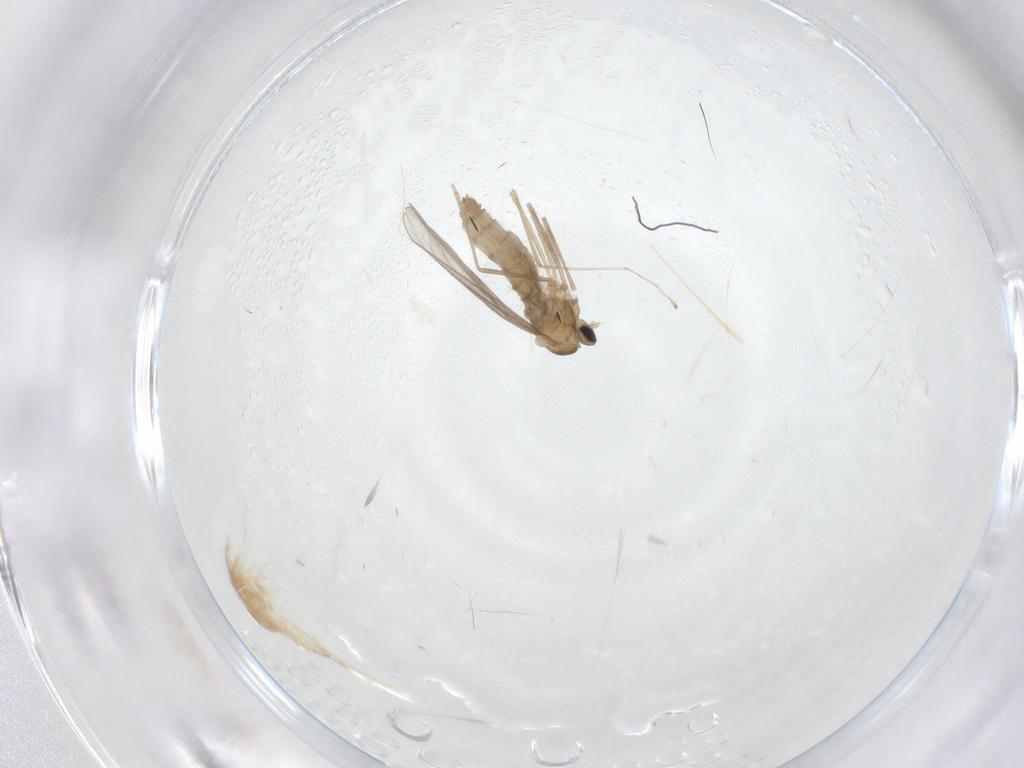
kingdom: Animalia
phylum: Arthropoda
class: Insecta
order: Diptera
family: Cecidomyiidae
